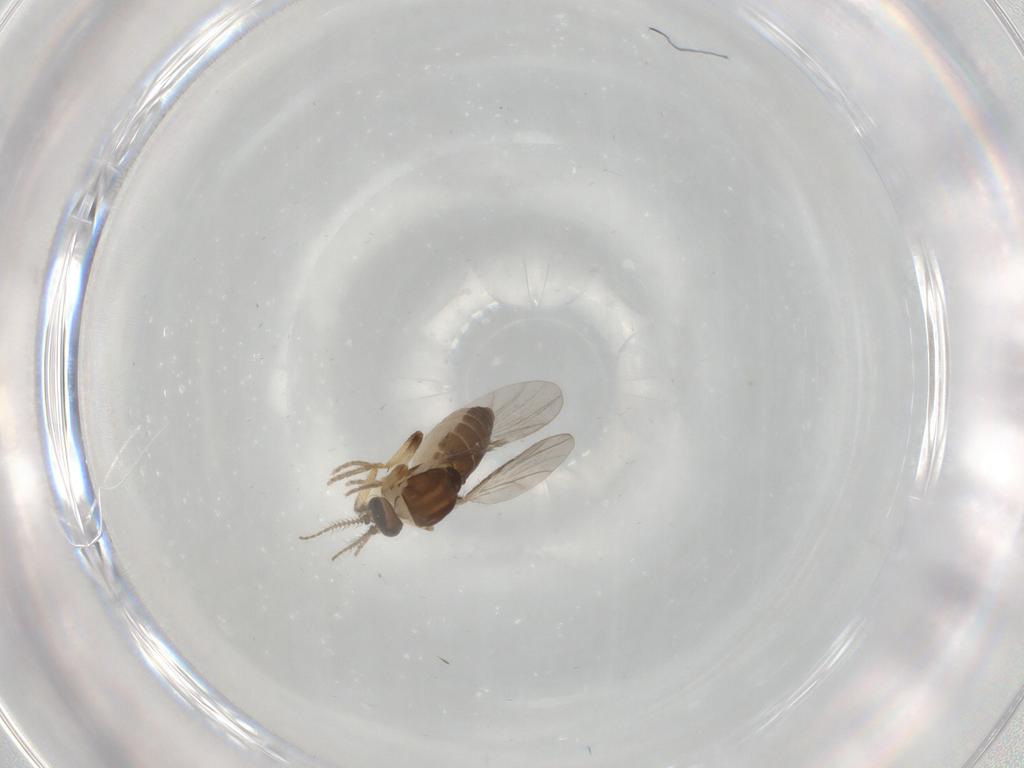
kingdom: Animalia
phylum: Arthropoda
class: Insecta
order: Diptera
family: Ceratopogonidae
